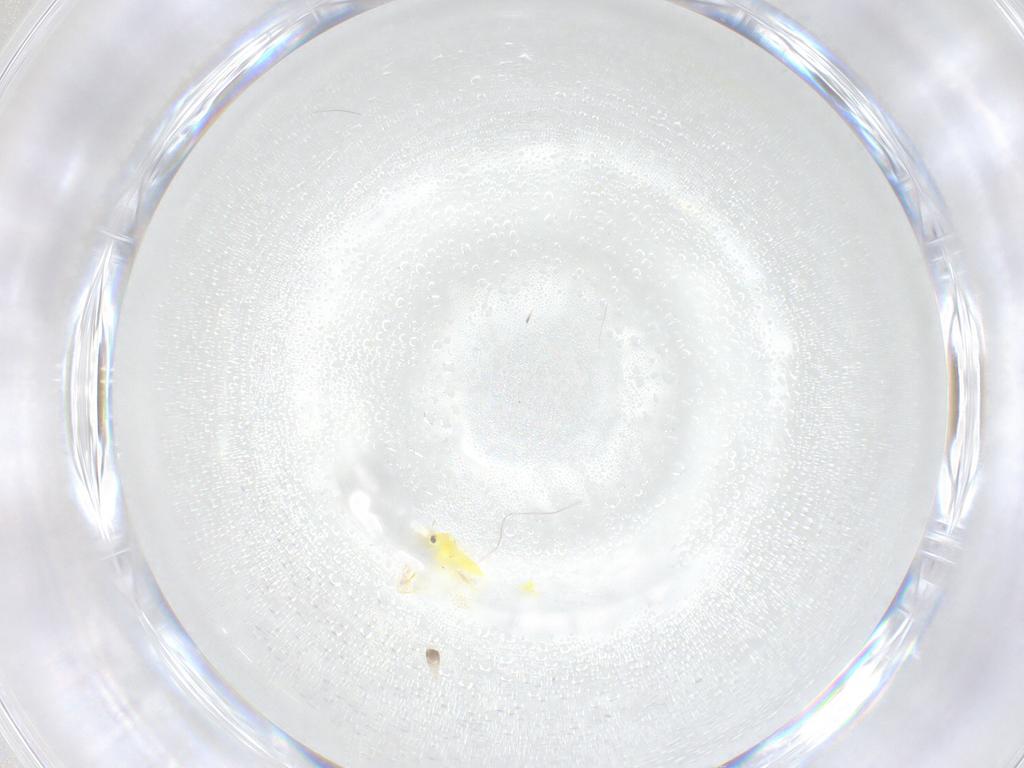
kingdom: Animalia
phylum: Arthropoda
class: Insecta
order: Hemiptera
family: Aleyrodidae
